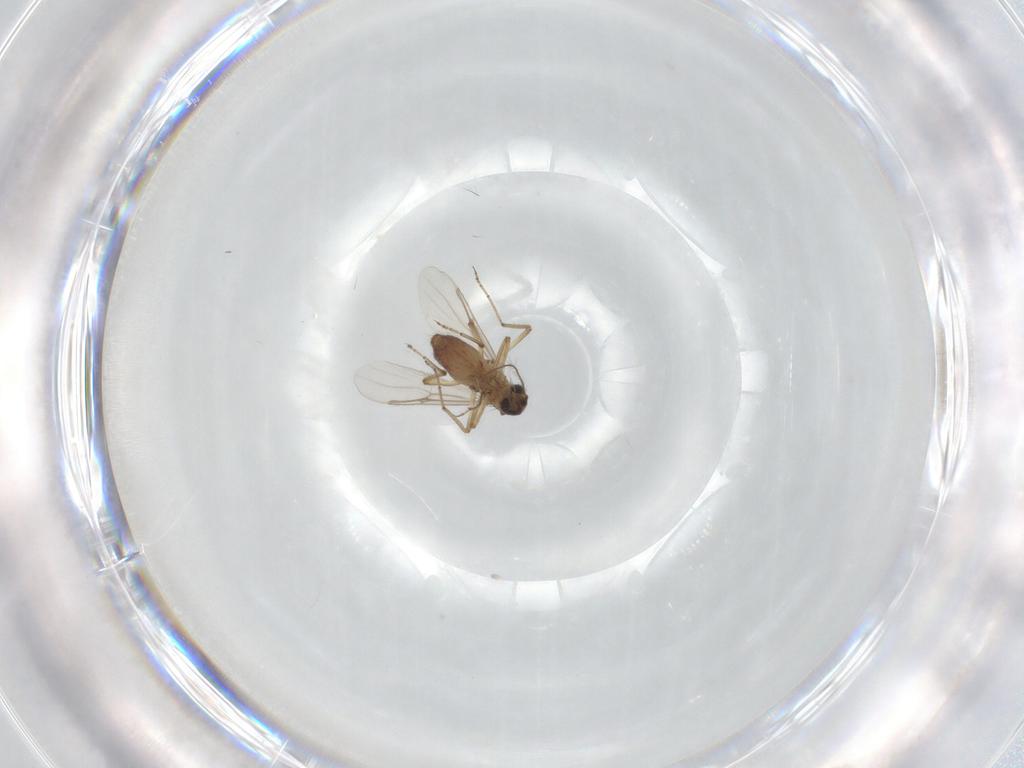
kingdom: Animalia
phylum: Arthropoda
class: Insecta
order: Diptera
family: Ceratopogonidae
